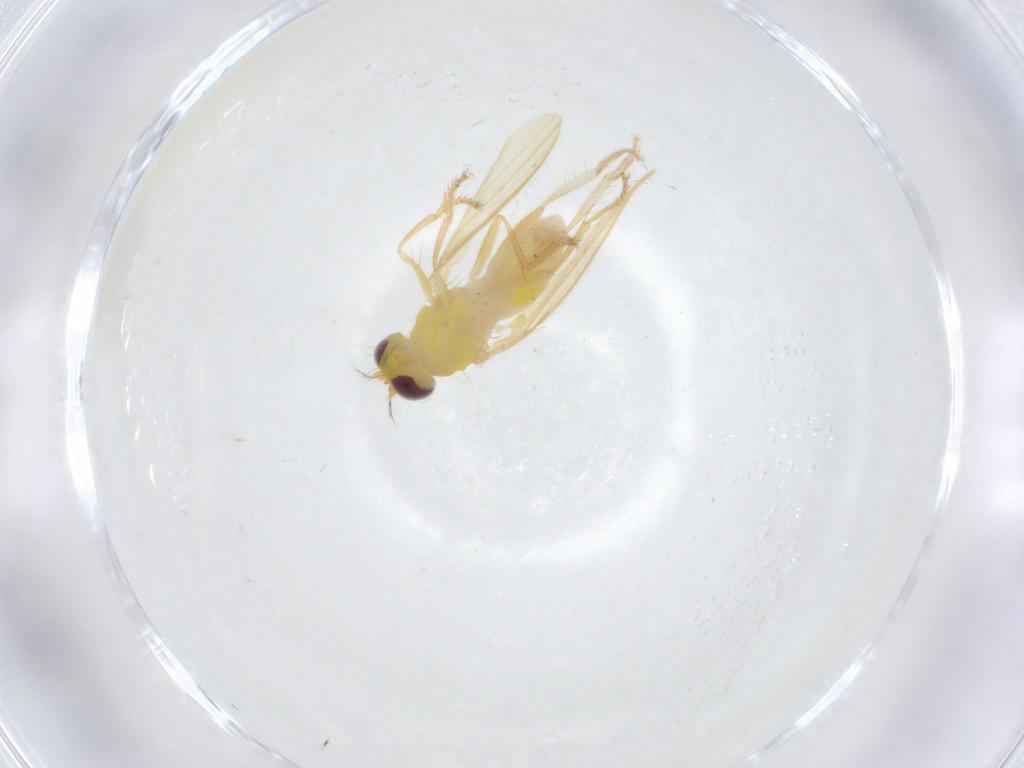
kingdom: Animalia
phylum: Arthropoda
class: Insecta
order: Diptera
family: Periscelididae
